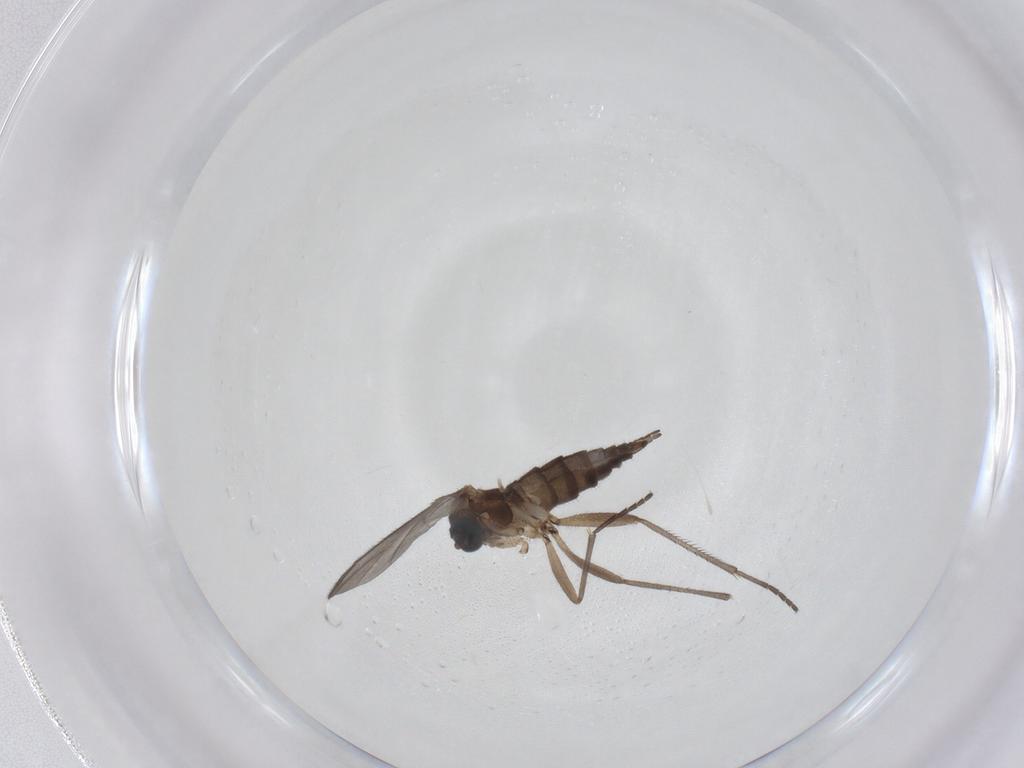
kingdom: Animalia
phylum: Arthropoda
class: Insecta
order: Diptera
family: Sciaridae
